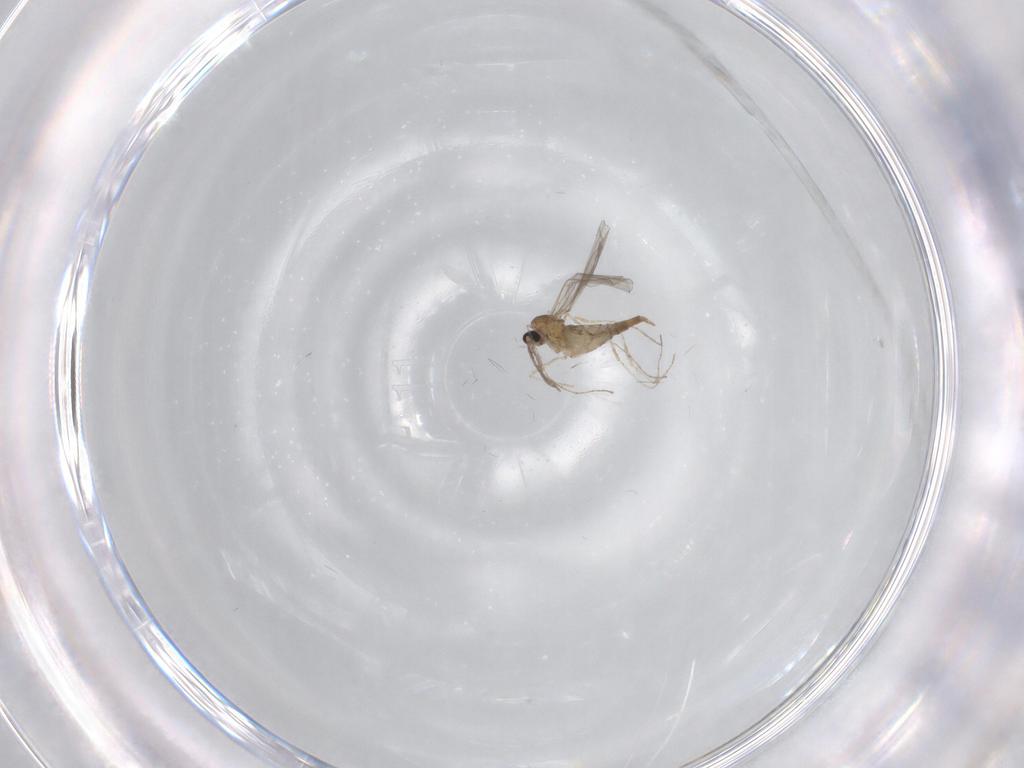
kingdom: Animalia
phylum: Arthropoda
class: Insecta
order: Diptera
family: Cecidomyiidae
